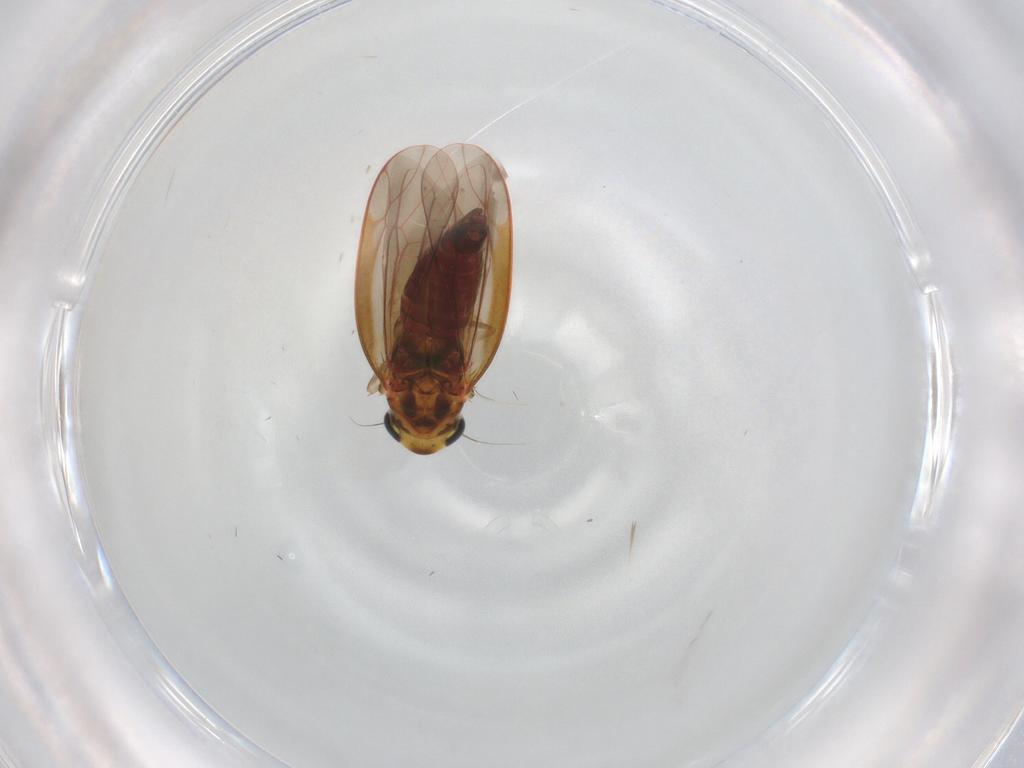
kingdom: Animalia
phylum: Arthropoda
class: Insecta
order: Hemiptera
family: Cicadellidae
